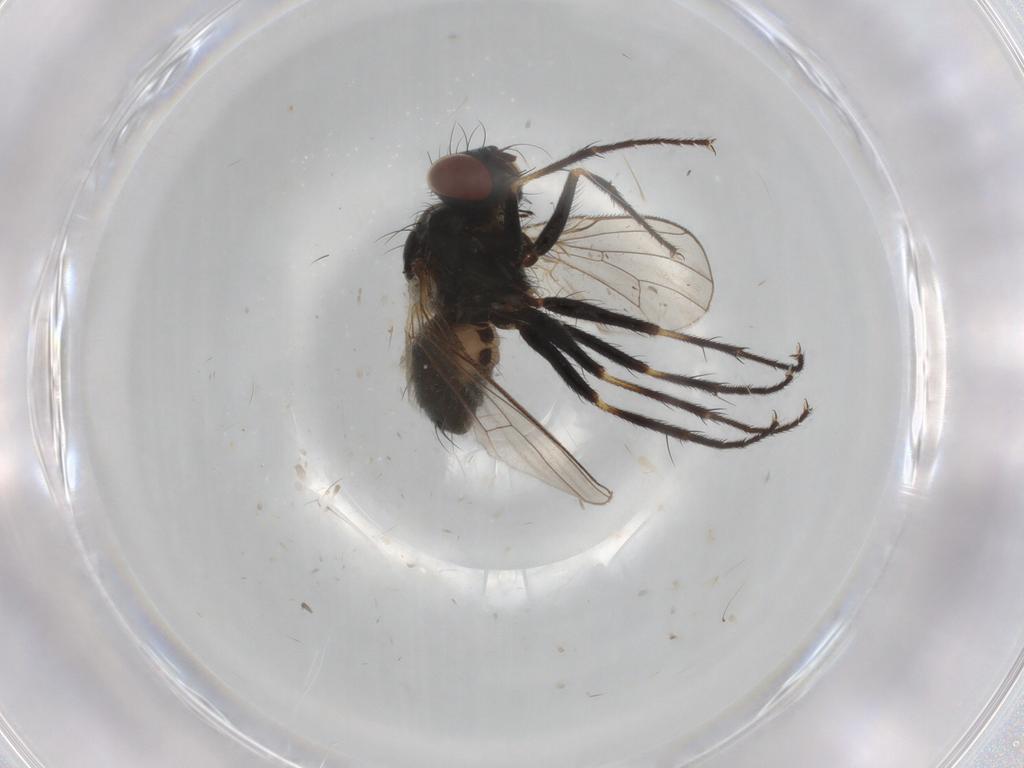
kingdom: Animalia
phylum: Arthropoda
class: Insecta
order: Diptera
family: Muscidae
